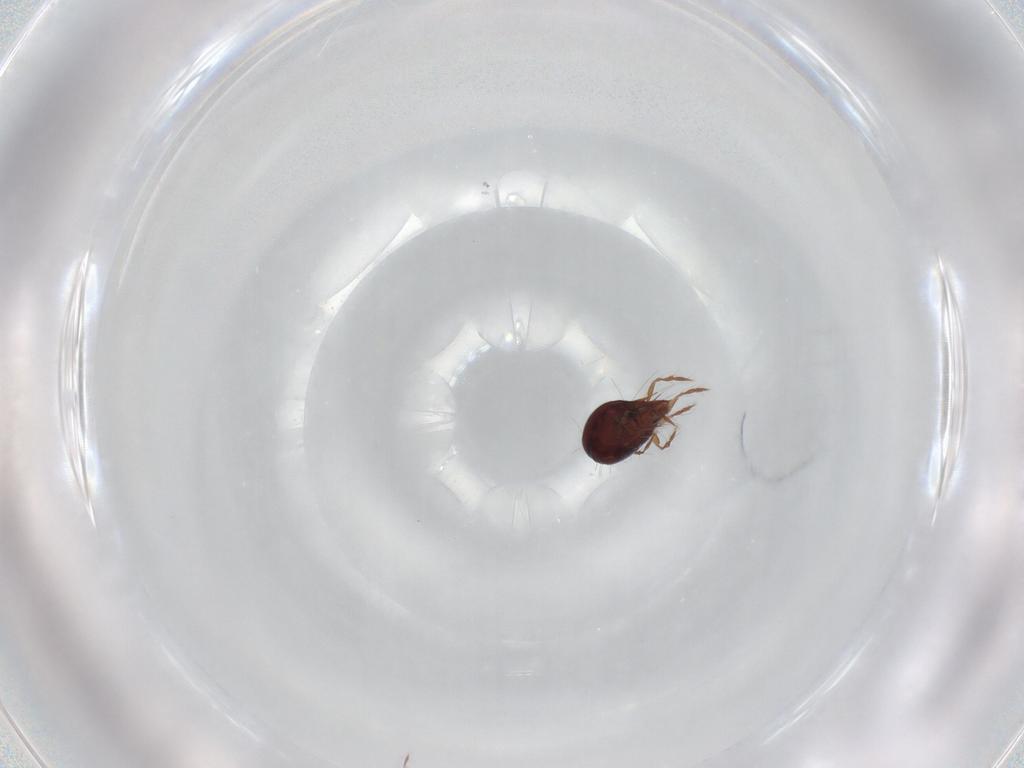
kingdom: Animalia
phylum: Arthropoda
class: Arachnida
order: Sarcoptiformes
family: Ceratoppiidae
